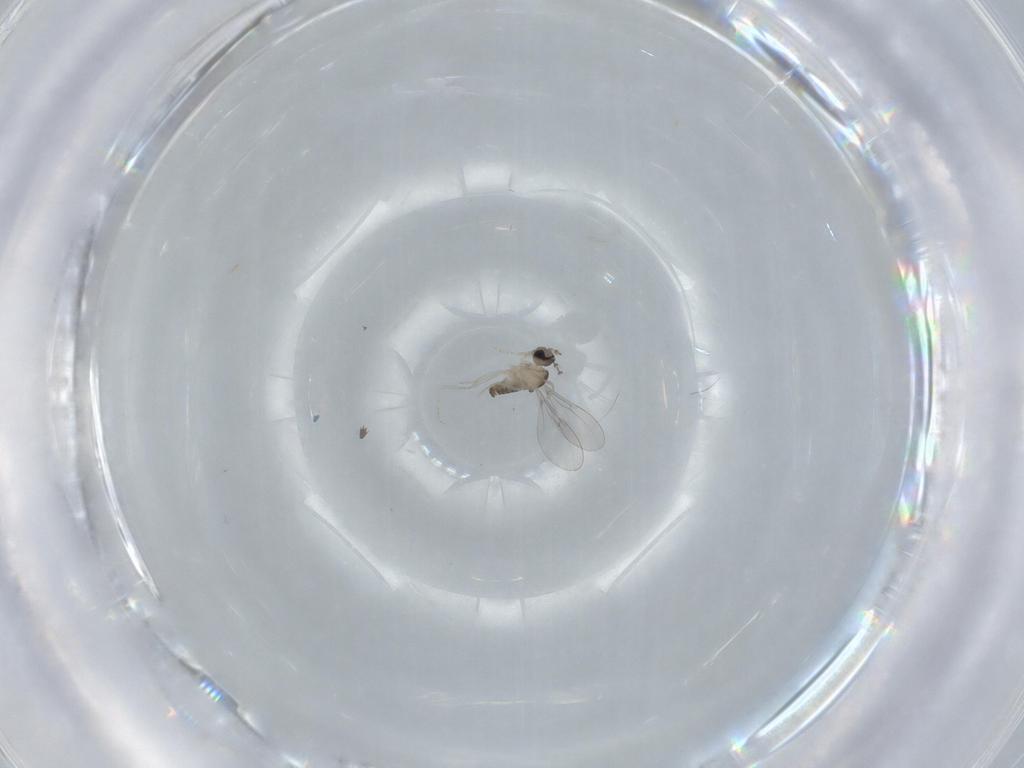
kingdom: Animalia
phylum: Arthropoda
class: Insecta
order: Diptera
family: Cecidomyiidae
